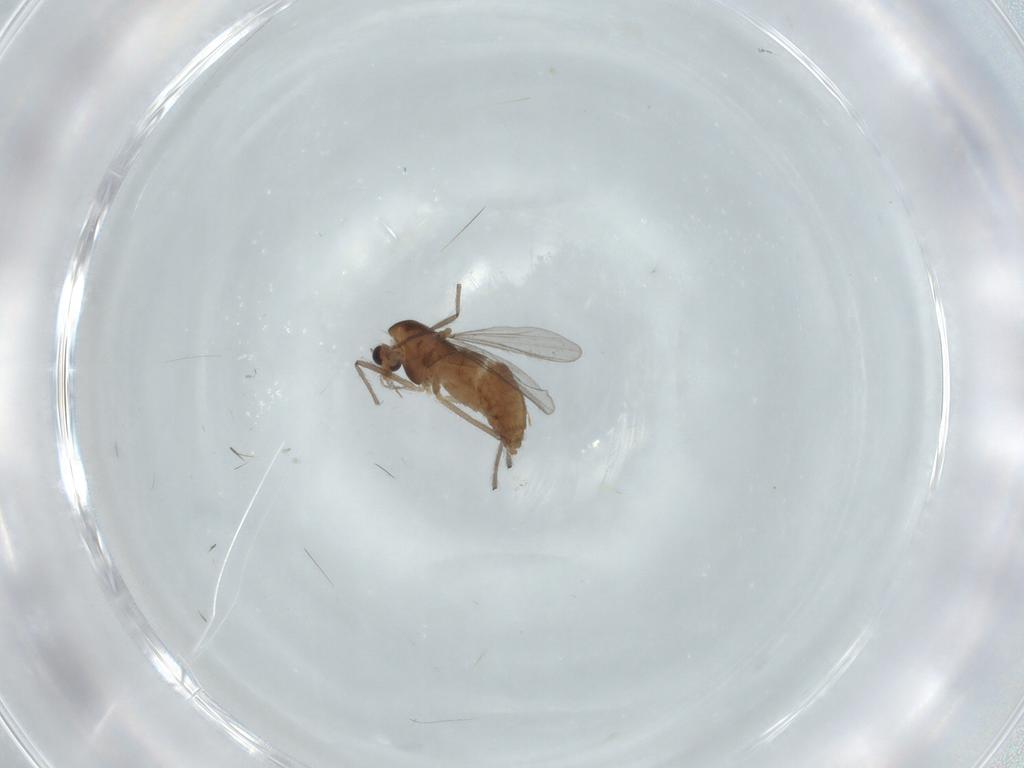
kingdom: Animalia
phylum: Arthropoda
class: Insecta
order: Diptera
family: Chironomidae
